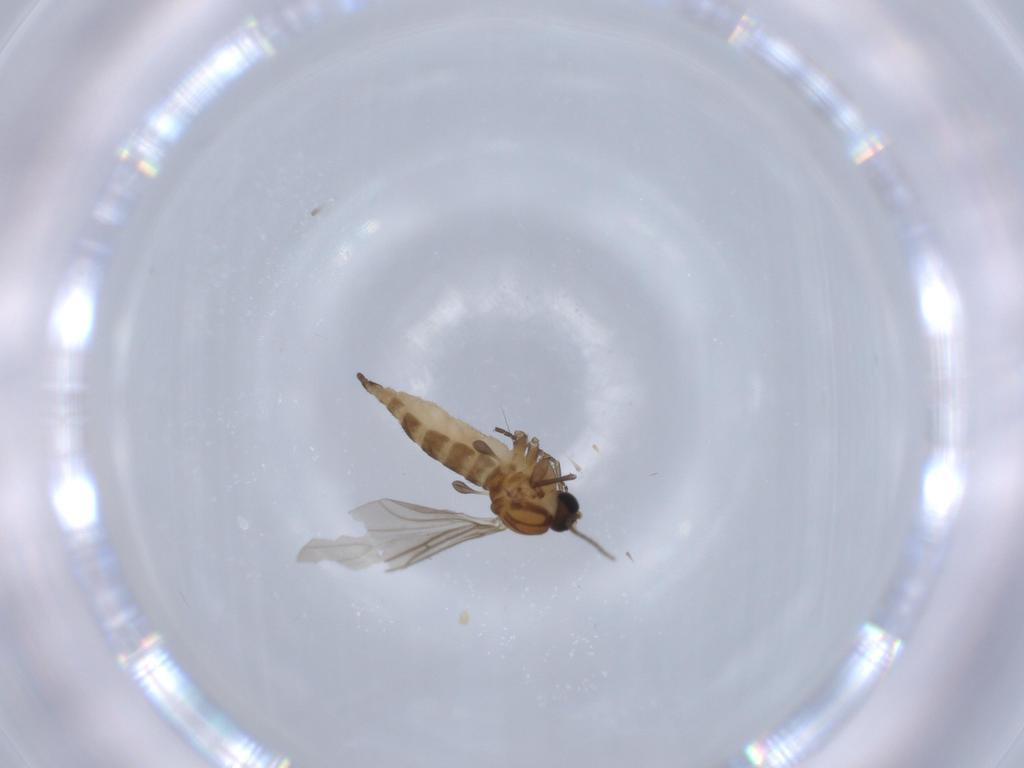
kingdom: Animalia
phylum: Arthropoda
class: Insecta
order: Diptera
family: Sciaridae
